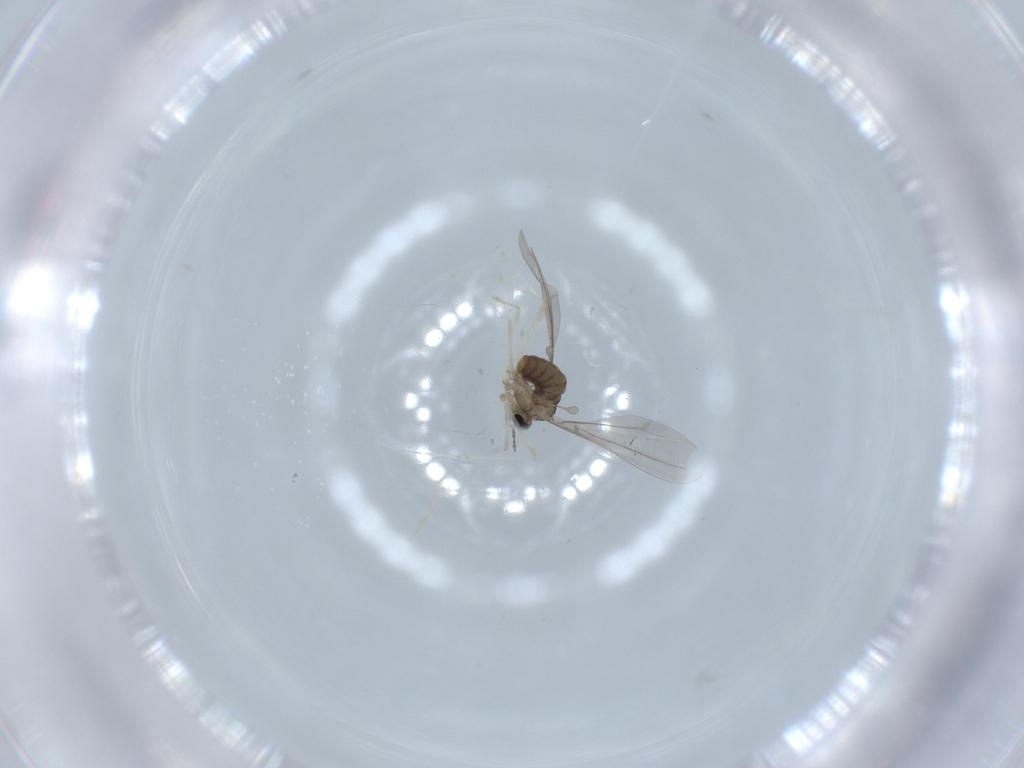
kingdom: Animalia
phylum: Arthropoda
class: Insecta
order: Diptera
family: Cecidomyiidae
